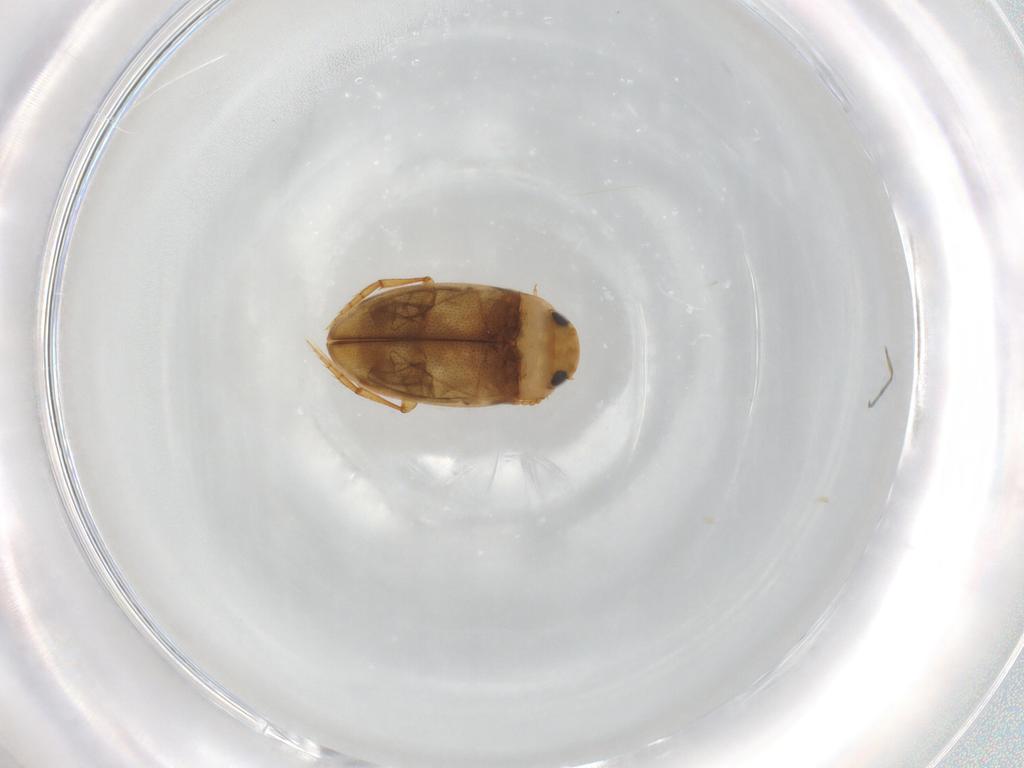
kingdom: Animalia
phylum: Arthropoda
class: Insecta
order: Coleoptera
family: Dytiscidae
